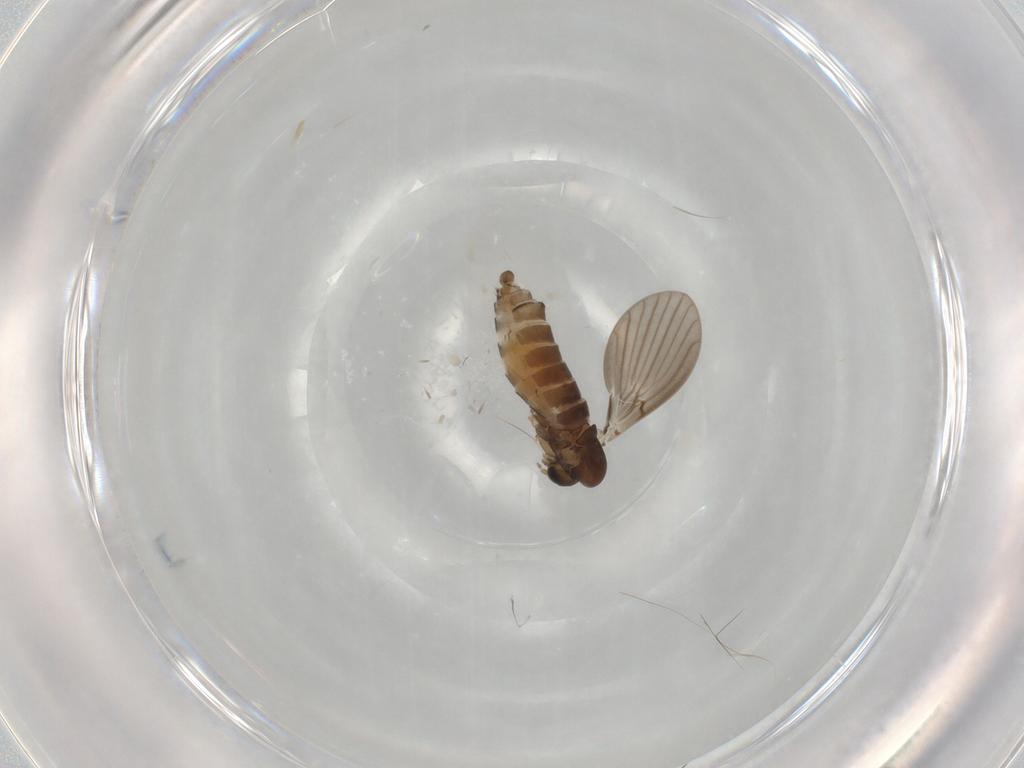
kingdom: Animalia
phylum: Arthropoda
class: Insecta
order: Diptera
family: Psychodidae
